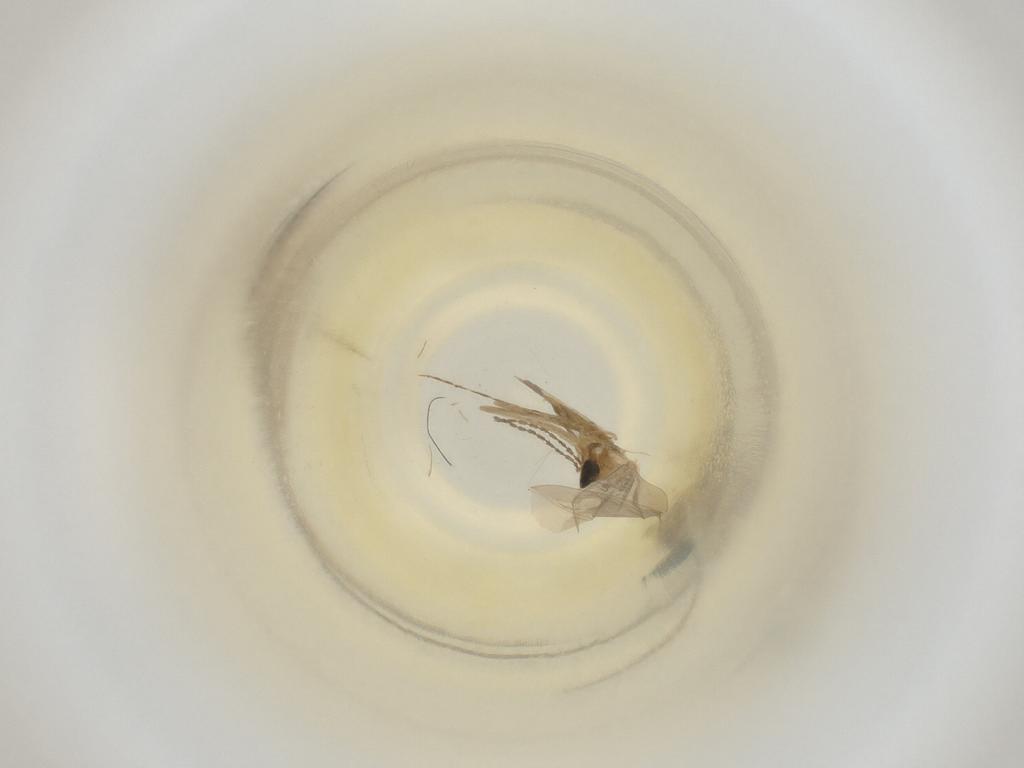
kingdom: Animalia
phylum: Arthropoda
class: Insecta
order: Diptera
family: Cecidomyiidae
